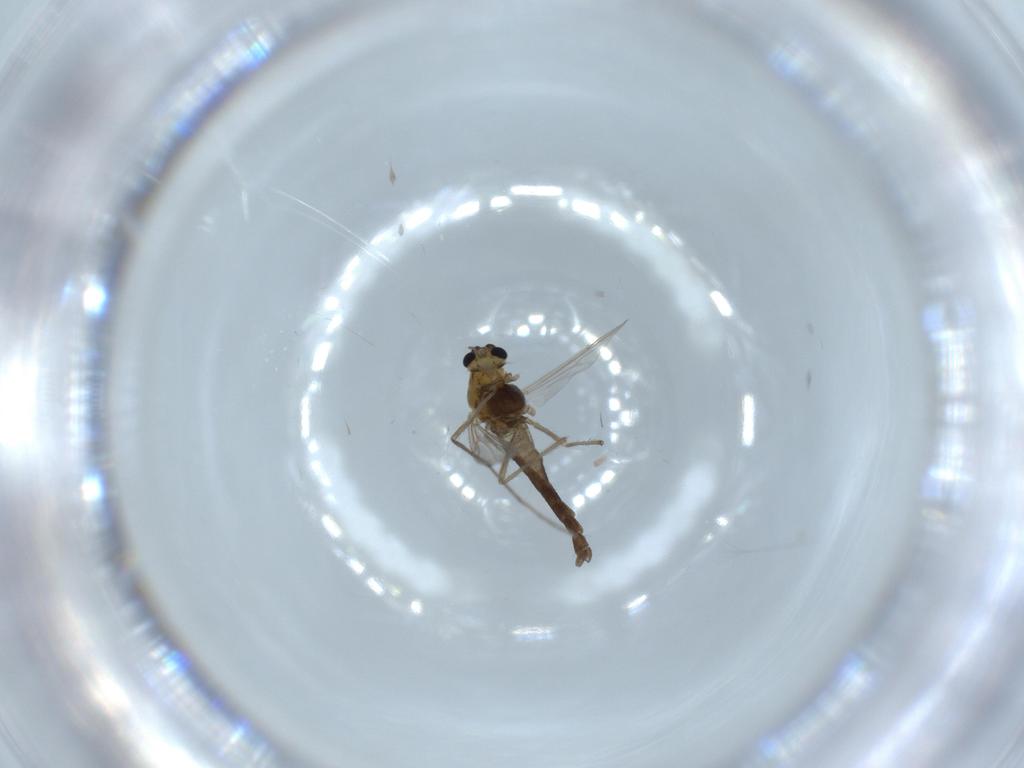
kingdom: Animalia
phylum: Arthropoda
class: Insecta
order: Diptera
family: Chironomidae
